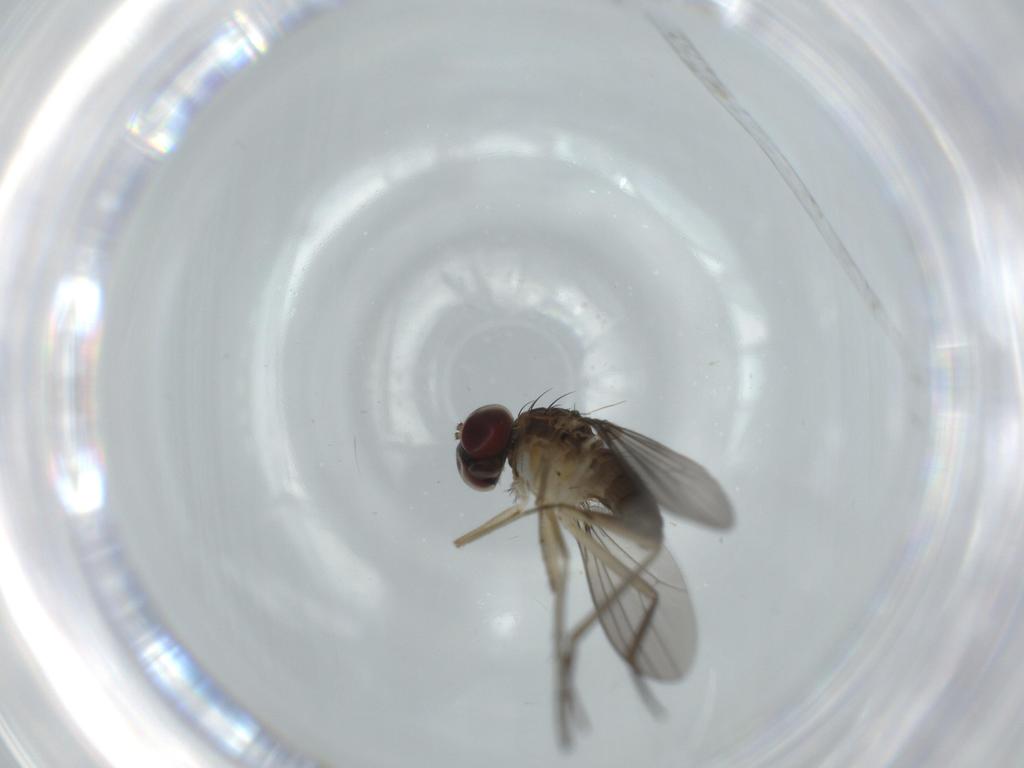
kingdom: Animalia
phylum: Arthropoda
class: Insecta
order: Diptera
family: Dolichopodidae
